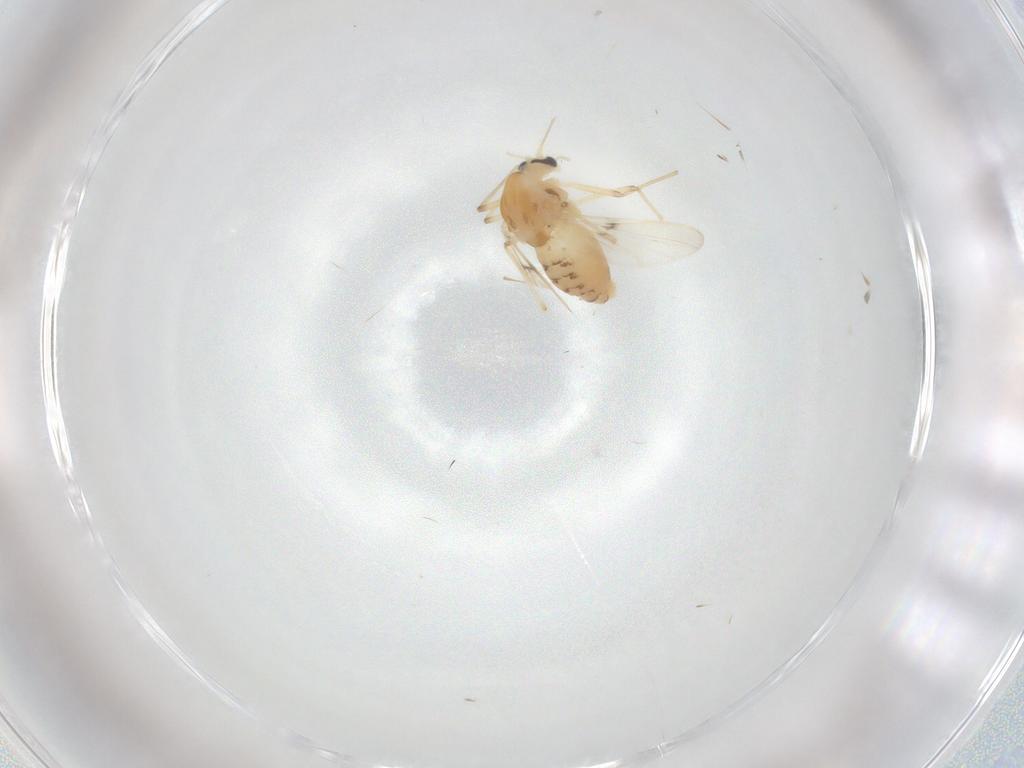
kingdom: Animalia
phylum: Arthropoda
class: Insecta
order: Diptera
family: Chironomidae
